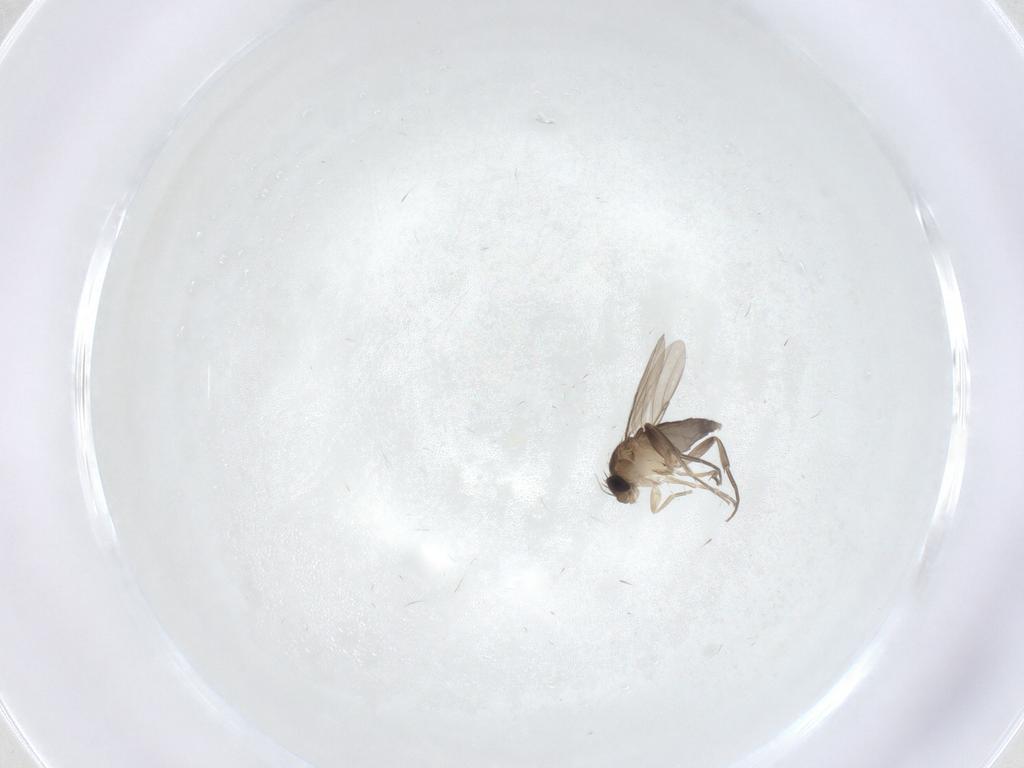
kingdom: Animalia
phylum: Arthropoda
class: Insecta
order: Diptera
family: Phoridae
